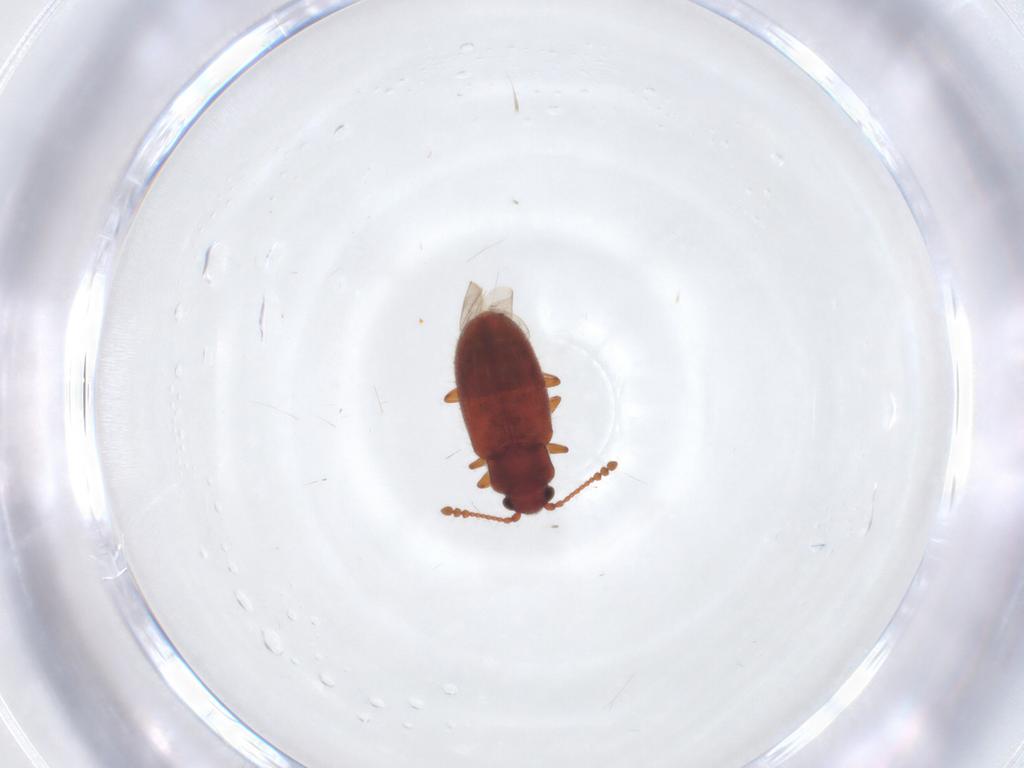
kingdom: Animalia
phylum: Arthropoda
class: Insecta
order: Coleoptera
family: Cryptophagidae
